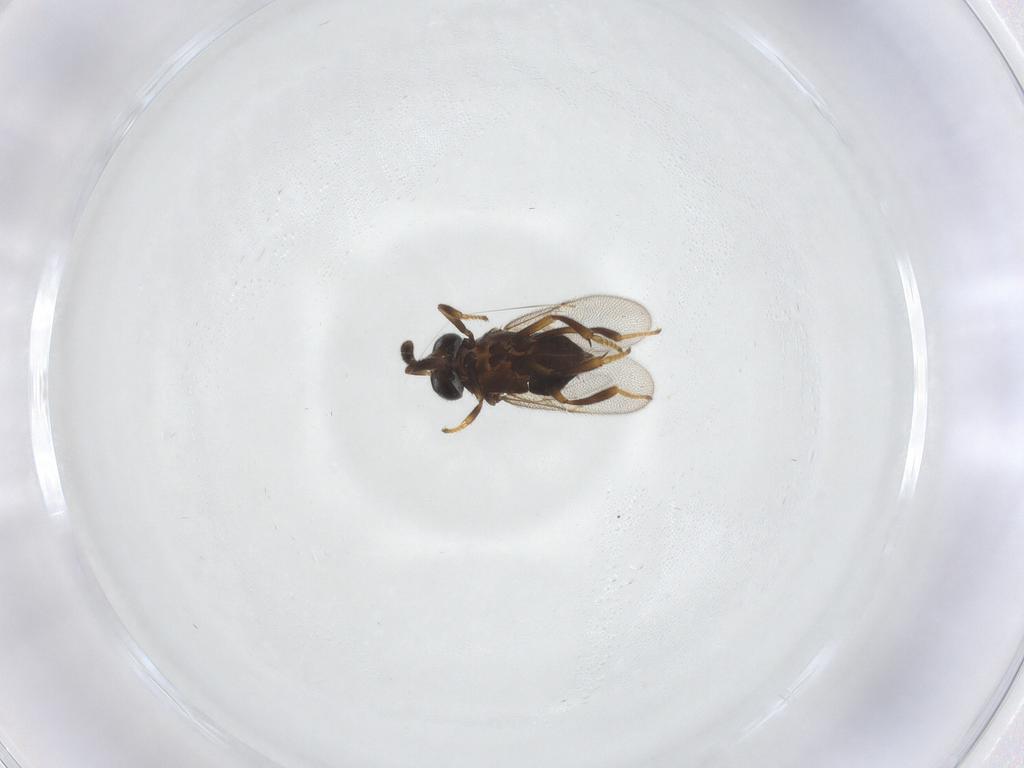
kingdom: Animalia
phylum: Arthropoda
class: Insecta
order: Hymenoptera
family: Encyrtidae
